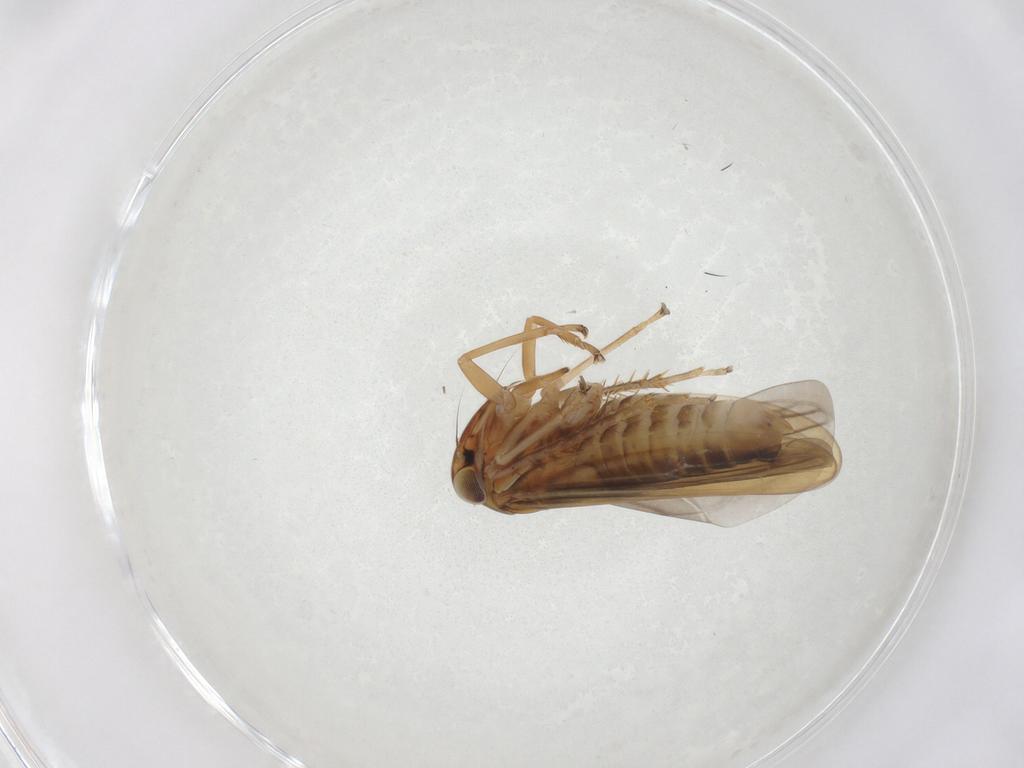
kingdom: Animalia
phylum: Arthropoda
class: Insecta
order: Hemiptera
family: Cicadellidae
